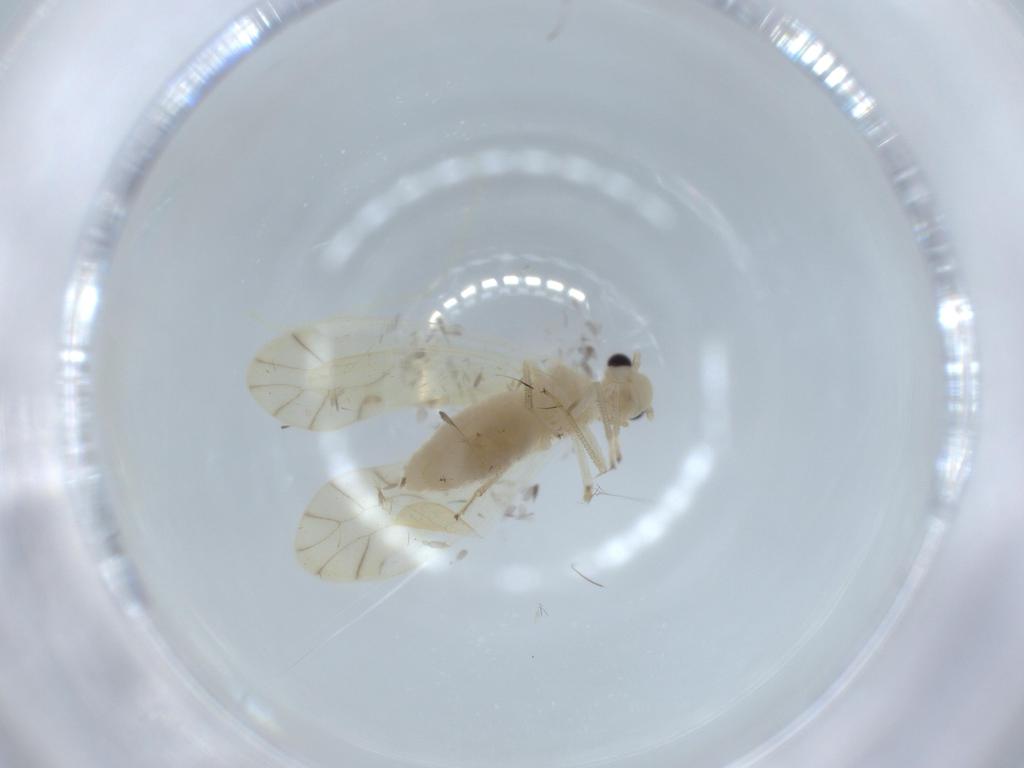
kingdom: Animalia
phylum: Arthropoda
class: Insecta
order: Psocodea
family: Caeciliusidae
